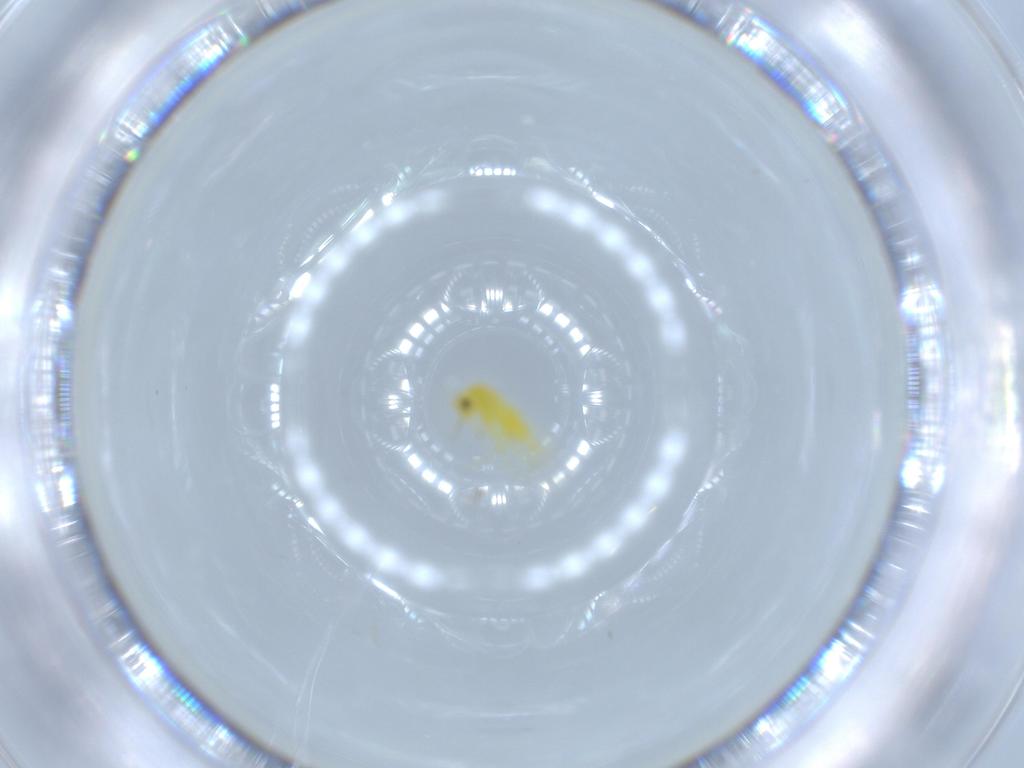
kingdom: Animalia
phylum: Arthropoda
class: Insecta
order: Hemiptera
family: Aleyrodidae
